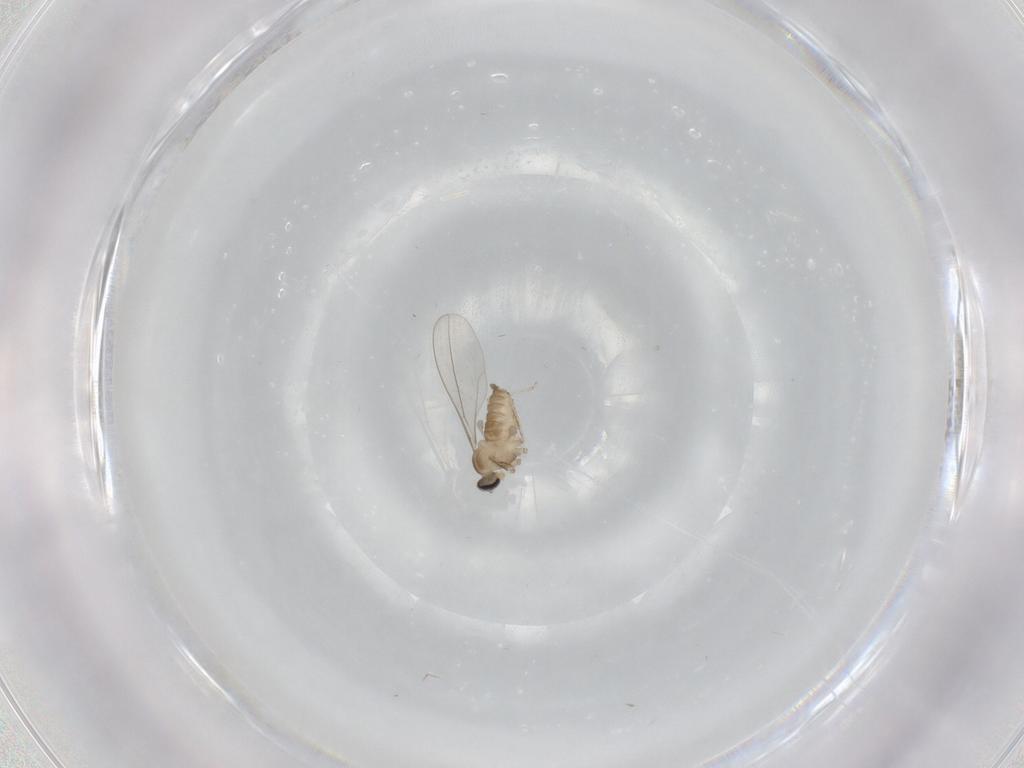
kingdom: Animalia
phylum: Arthropoda
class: Insecta
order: Diptera
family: Cecidomyiidae
